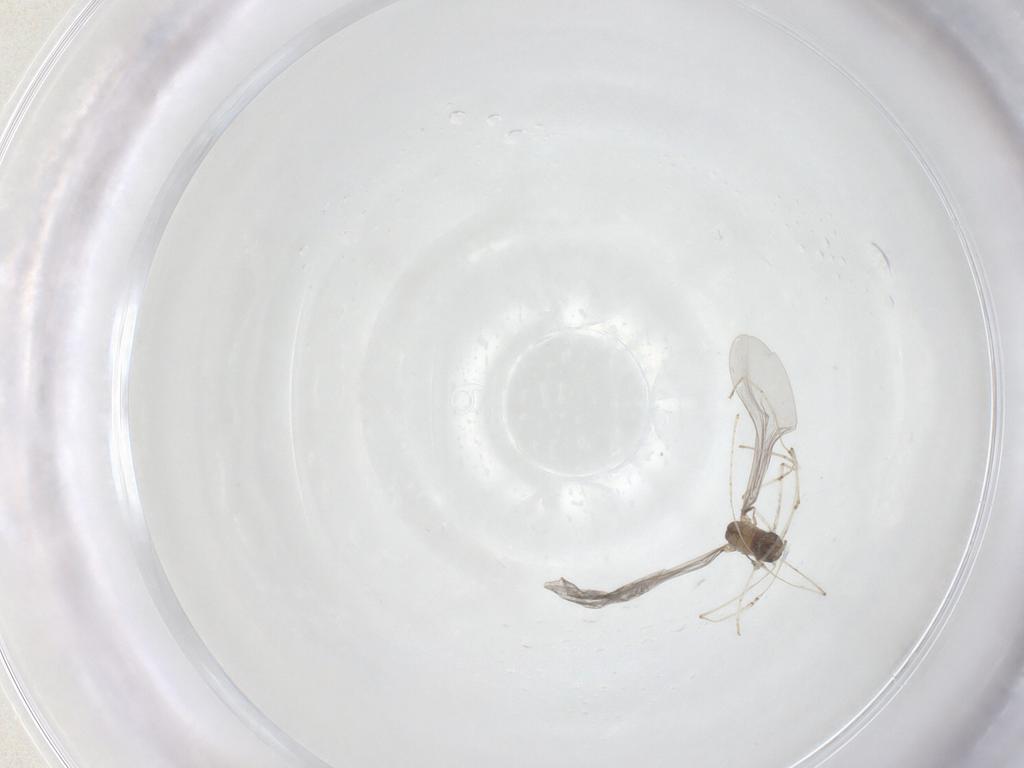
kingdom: Animalia
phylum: Arthropoda
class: Insecta
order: Diptera
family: Cecidomyiidae
